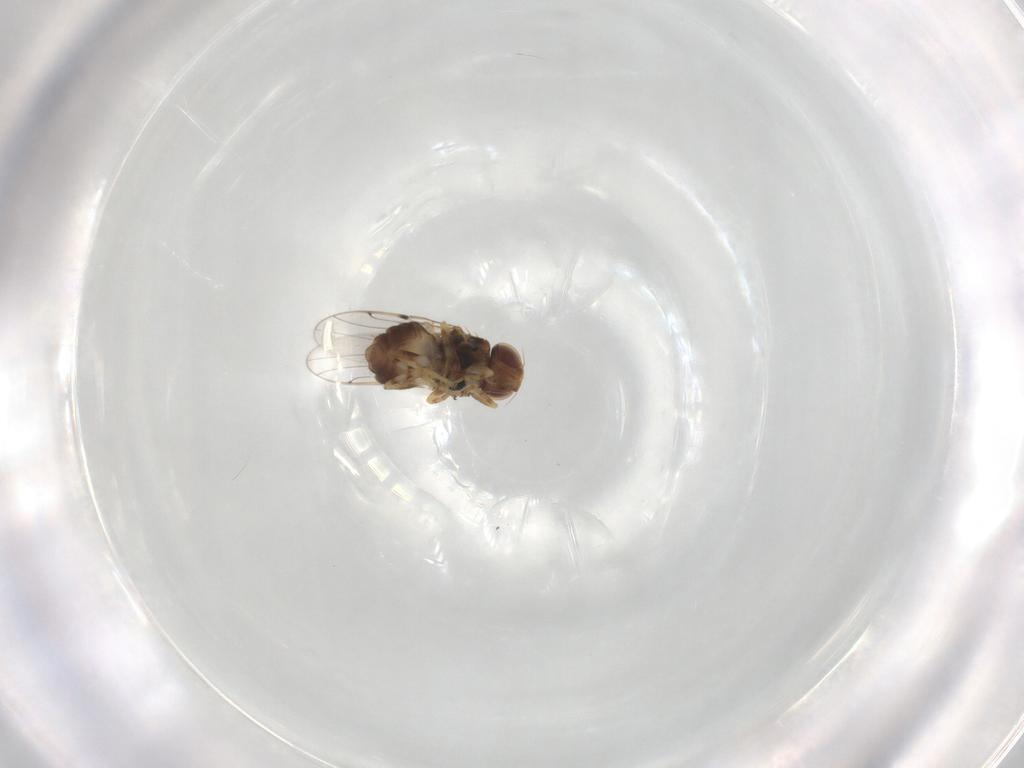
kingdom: Animalia
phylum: Arthropoda
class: Insecta
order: Diptera
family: Chloropidae
